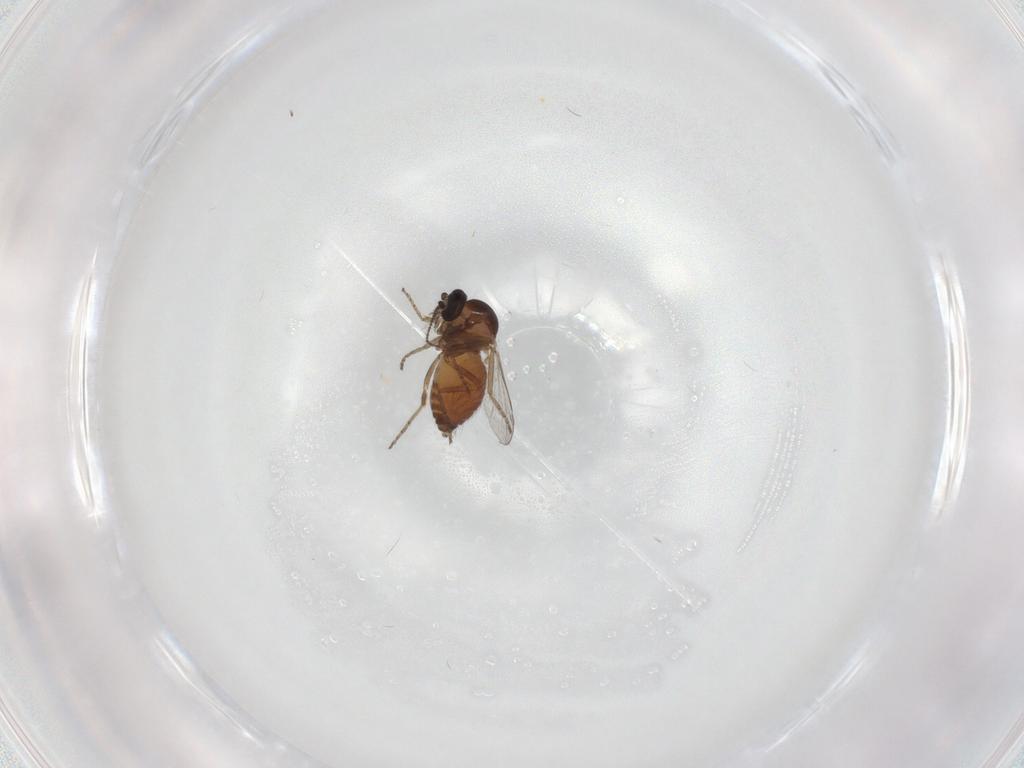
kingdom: Animalia
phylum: Arthropoda
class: Insecta
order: Diptera
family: Ceratopogonidae
